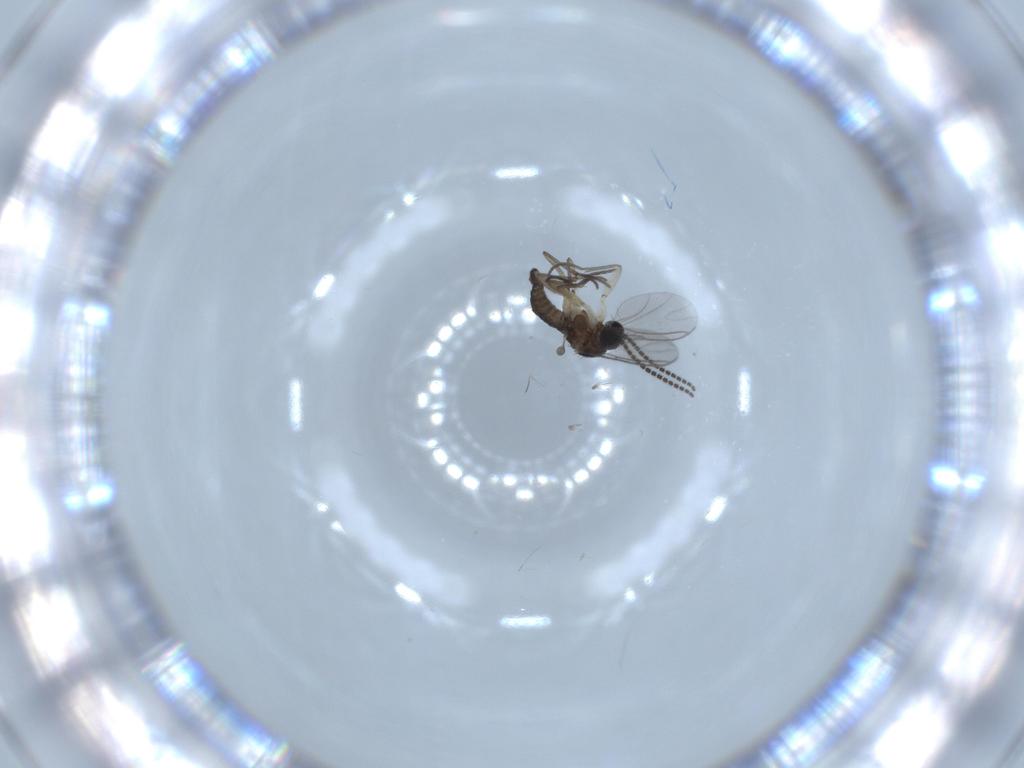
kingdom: Animalia
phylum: Arthropoda
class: Insecta
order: Diptera
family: Sciaridae
